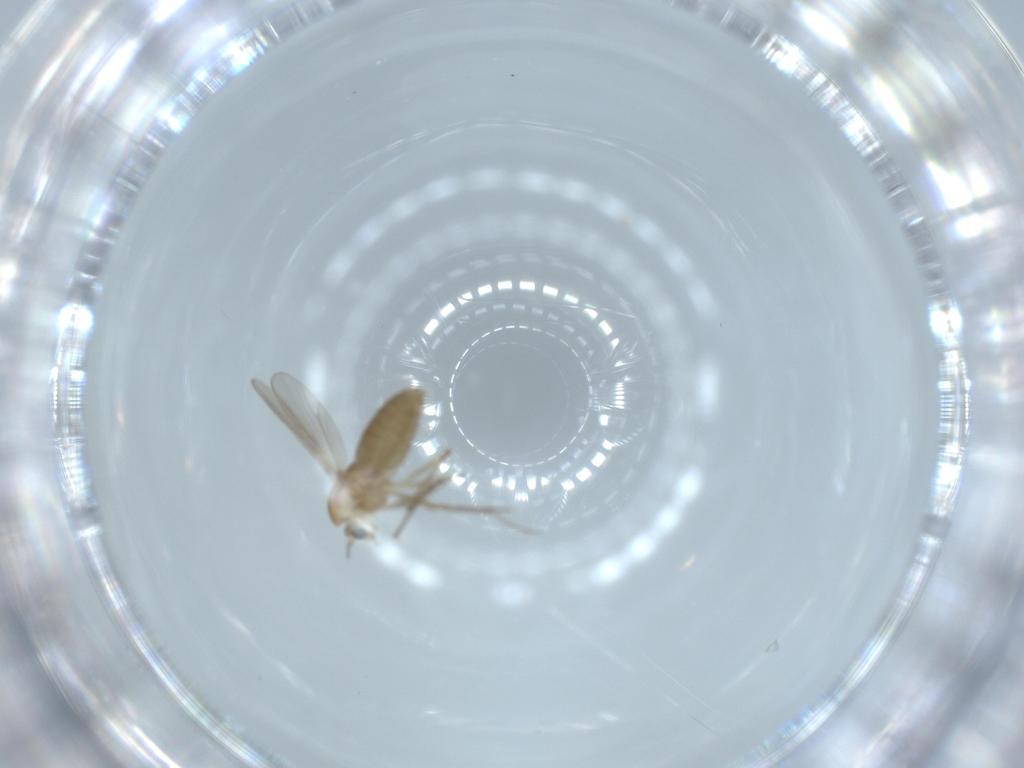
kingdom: Animalia
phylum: Arthropoda
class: Insecta
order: Diptera
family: Chironomidae
